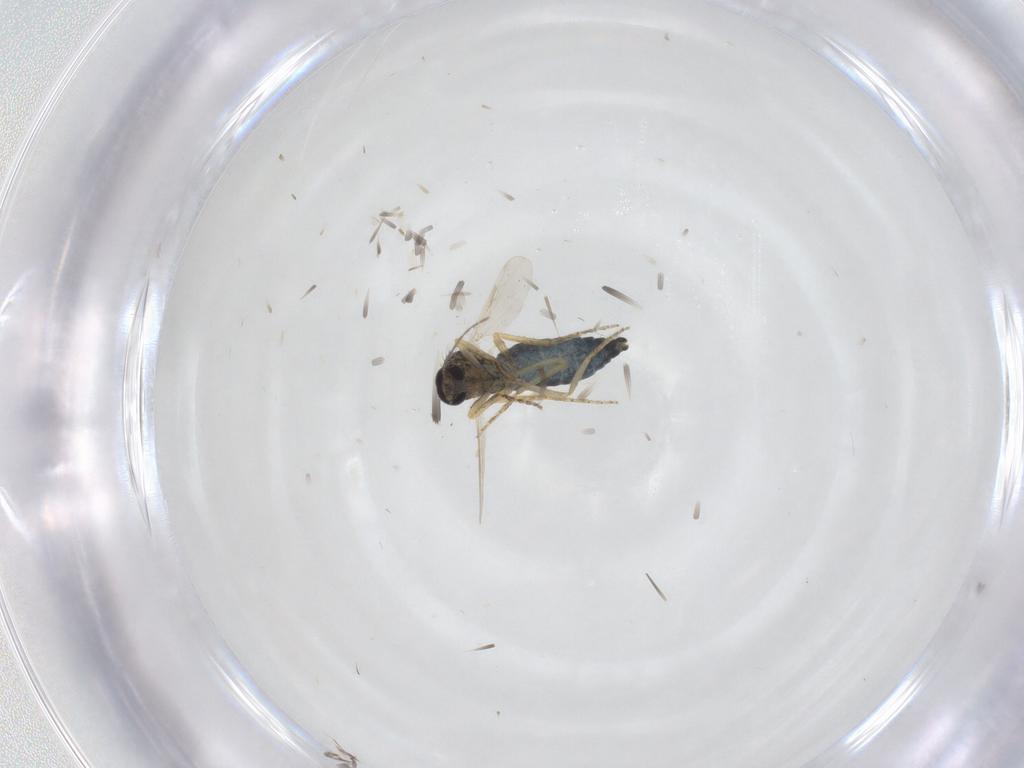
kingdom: Animalia
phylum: Arthropoda
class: Insecta
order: Diptera
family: Ceratopogonidae
